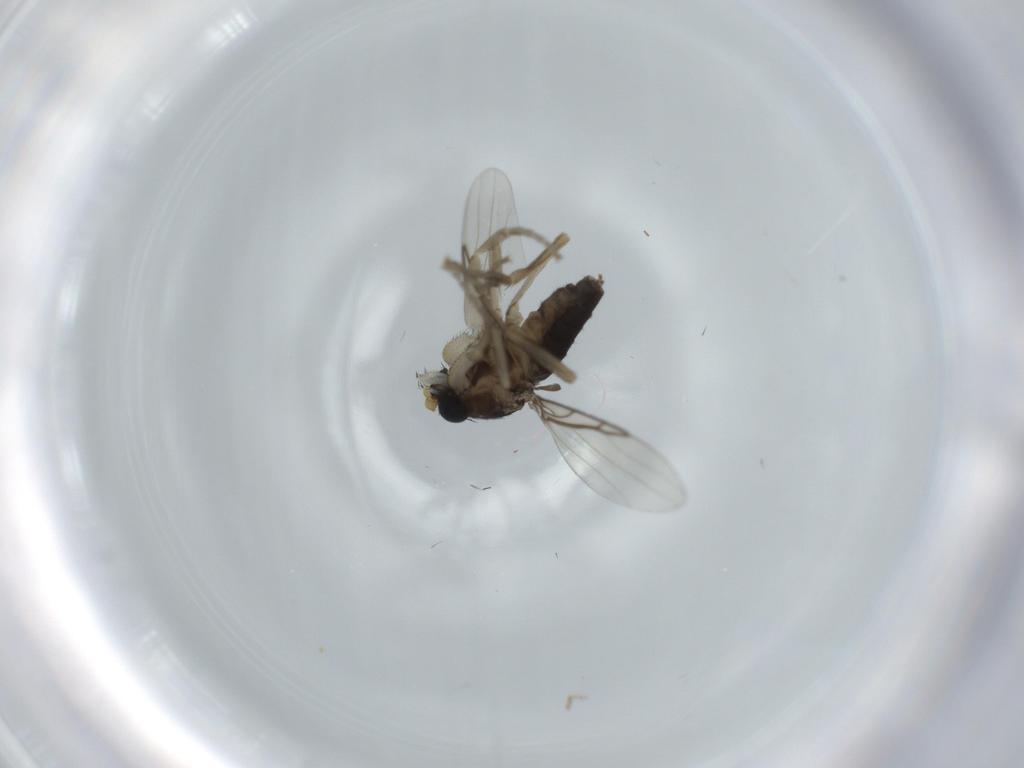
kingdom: Animalia
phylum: Arthropoda
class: Insecta
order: Diptera
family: Phoridae
